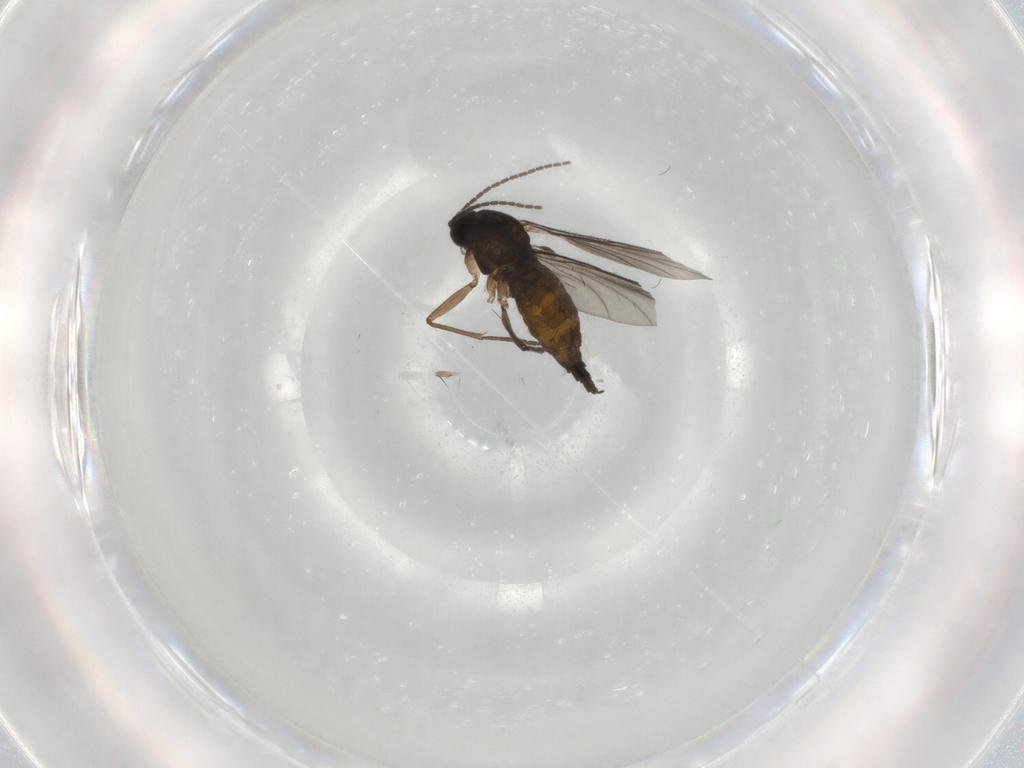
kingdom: Animalia
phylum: Arthropoda
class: Insecta
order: Diptera
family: Sciaridae
